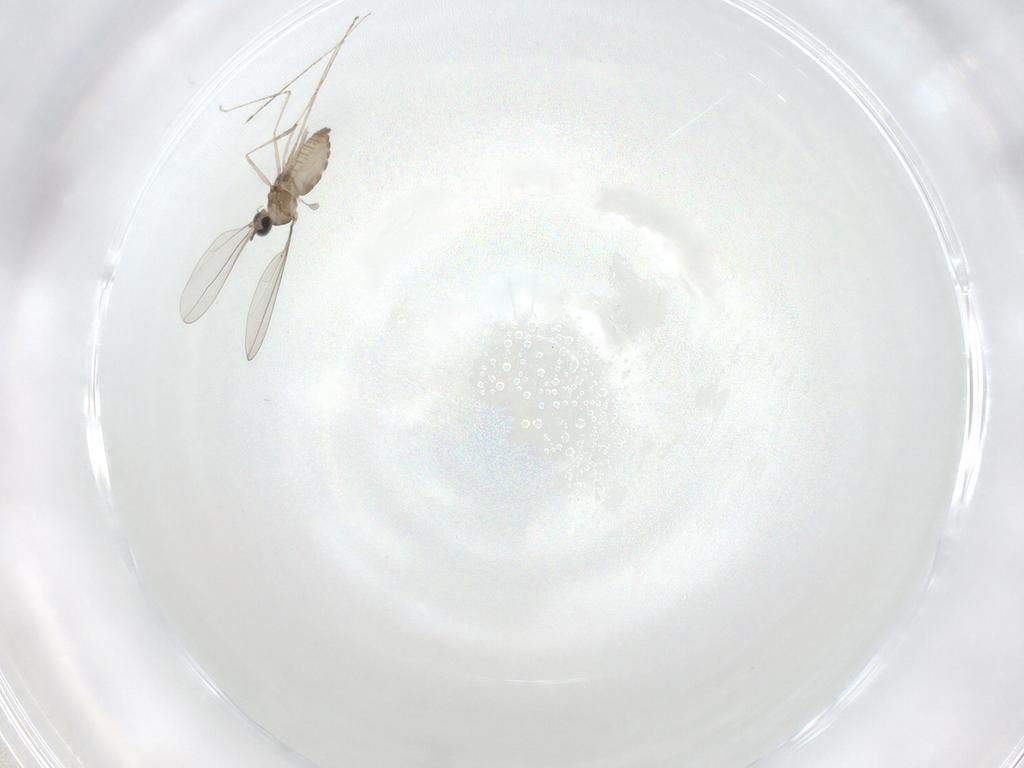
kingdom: Animalia
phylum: Arthropoda
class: Insecta
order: Diptera
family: Cecidomyiidae
